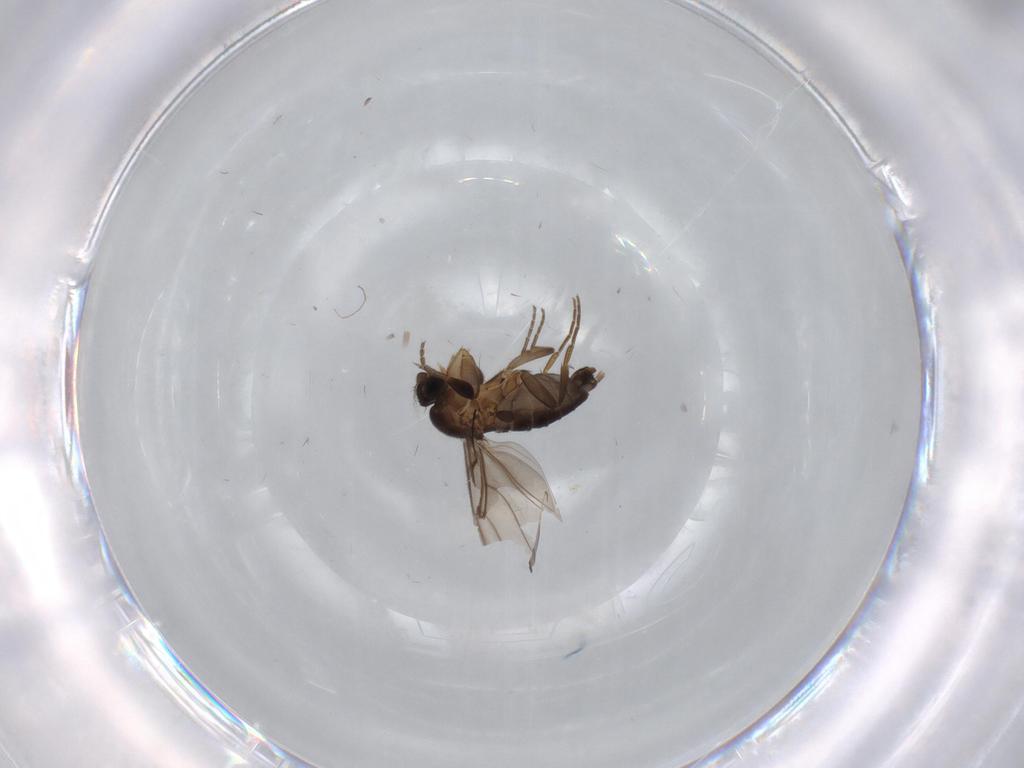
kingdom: Animalia
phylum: Arthropoda
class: Insecta
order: Diptera
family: Phoridae
